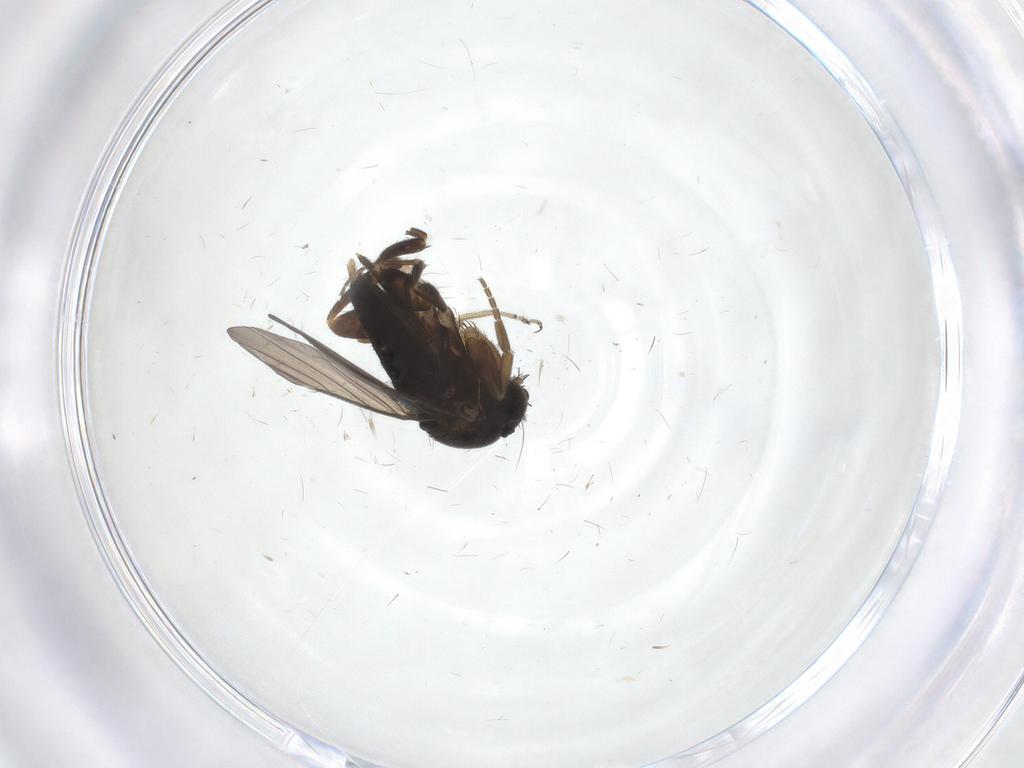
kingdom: Animalia
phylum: Arthropoda
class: Insecta
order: Diptera
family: Phoridae
